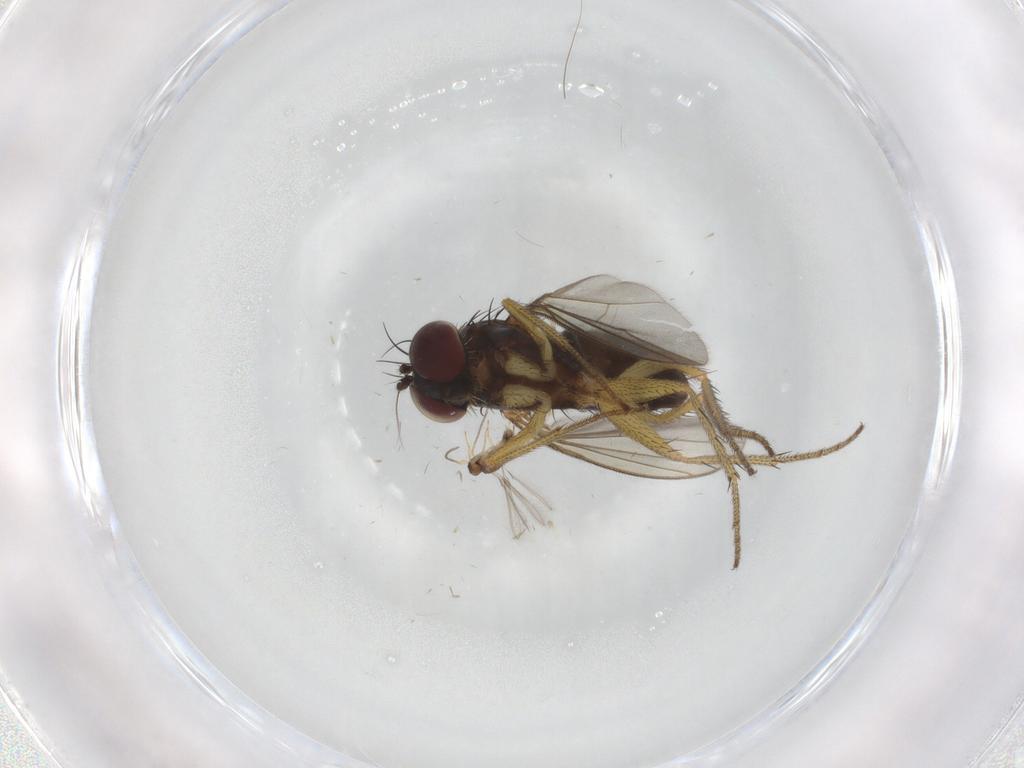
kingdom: Animalia
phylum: Arthropoda
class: Insecta
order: Diptera
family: Dolichopodidae
